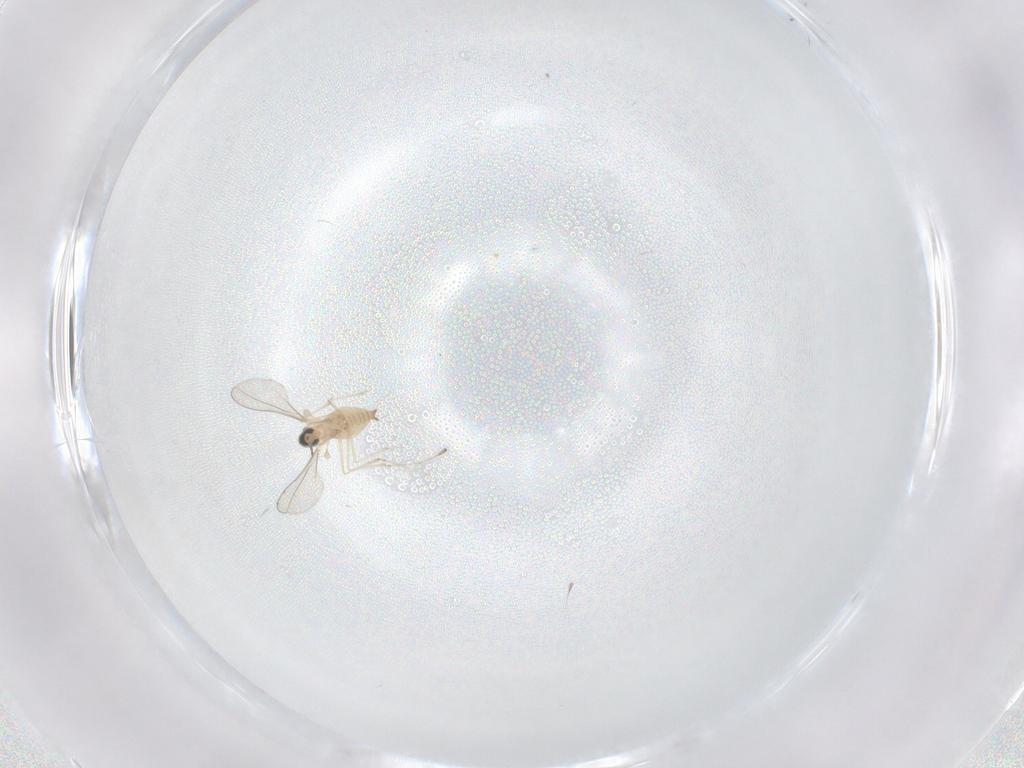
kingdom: Animalia
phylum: Arthropoda
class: Insecta
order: Diptera
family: Cecidomyiidae
